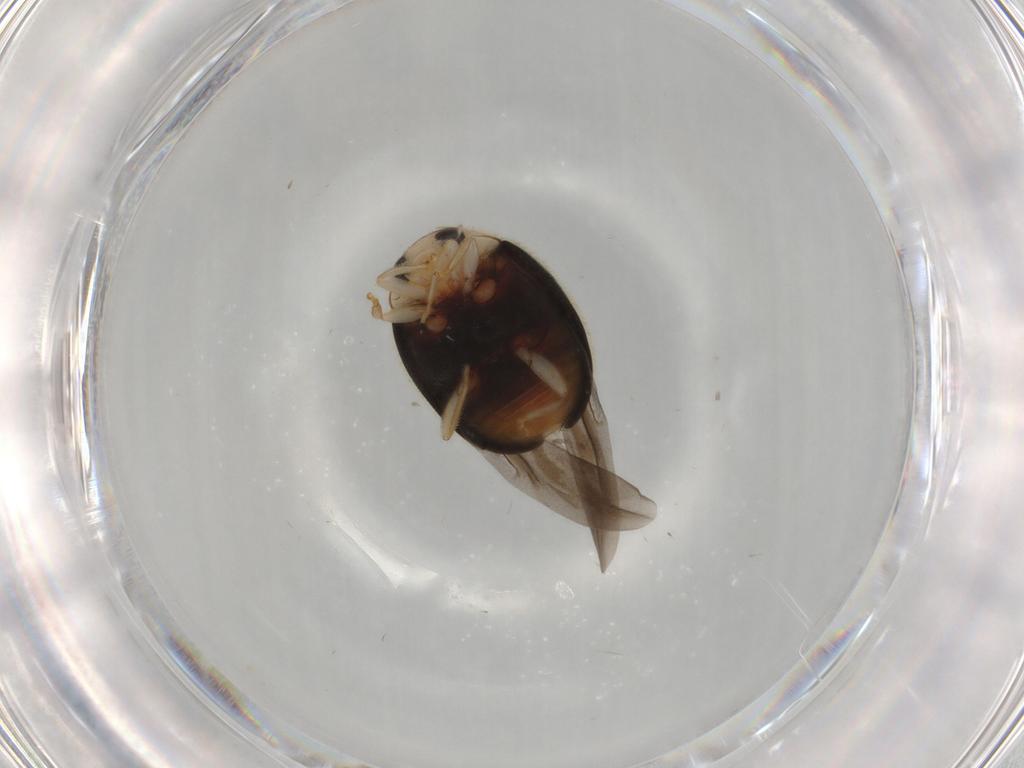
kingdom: Animalia
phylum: Arthropoda
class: Insecta
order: Coleoptera
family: Coccinellidae
